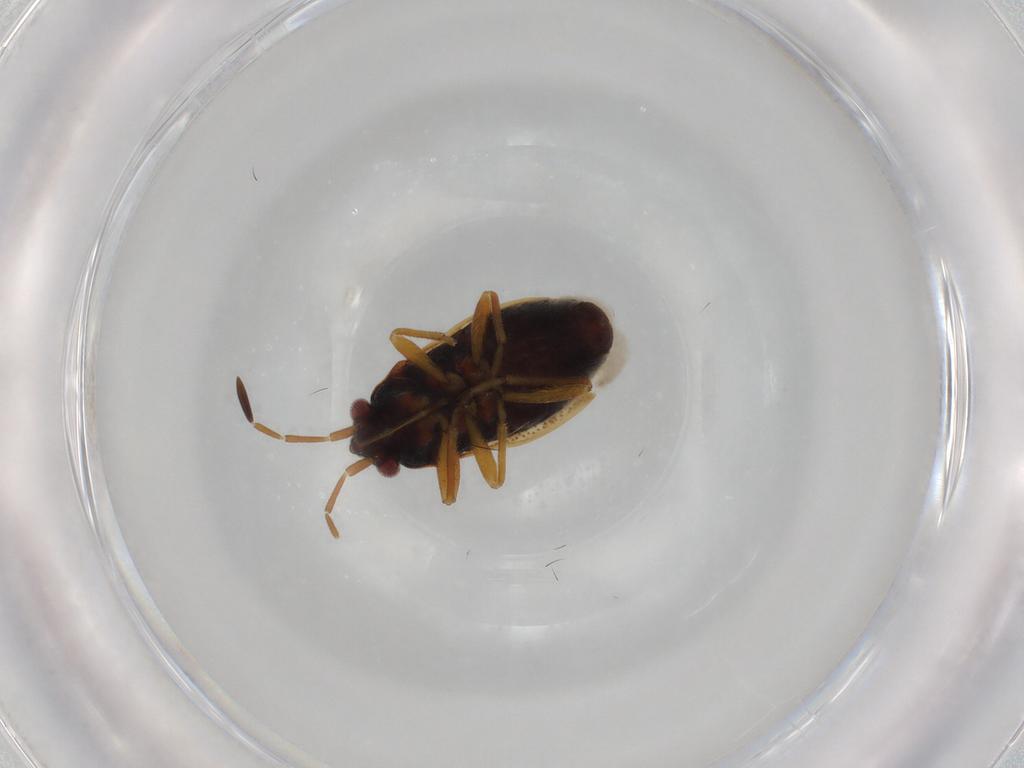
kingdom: Animalia
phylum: Arthropoda
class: Insecta
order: Hemiptera
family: Rhyparochromidae
